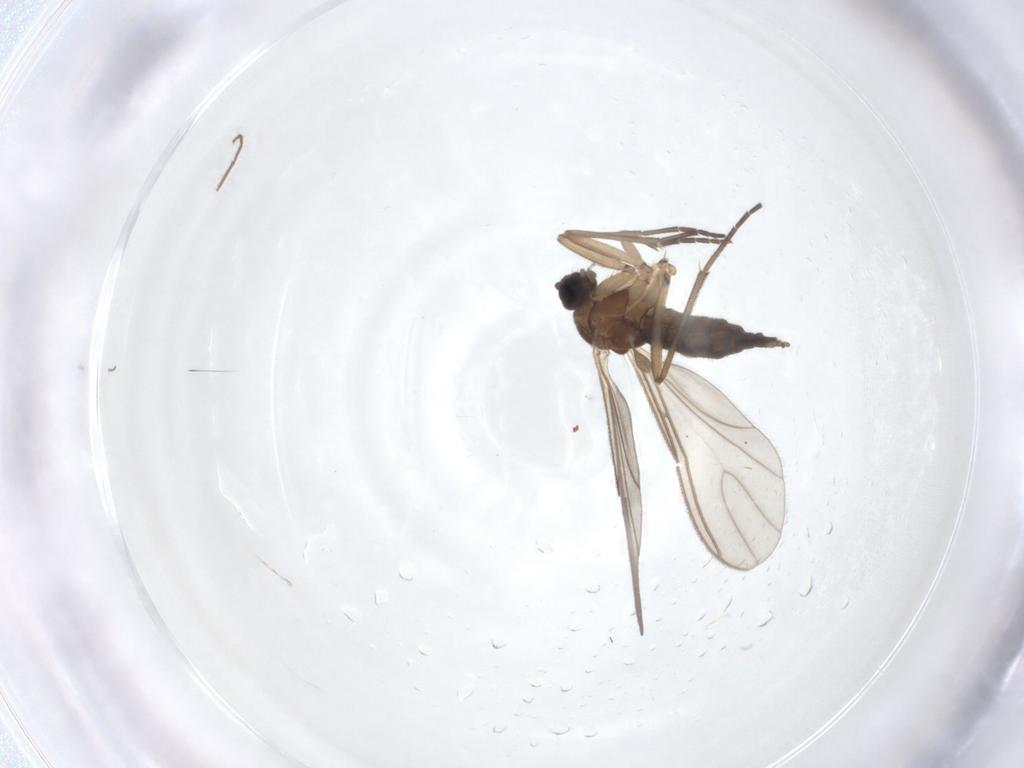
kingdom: Animalia
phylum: Arthropoda
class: Insecta
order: Diptera
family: Sciaridae
